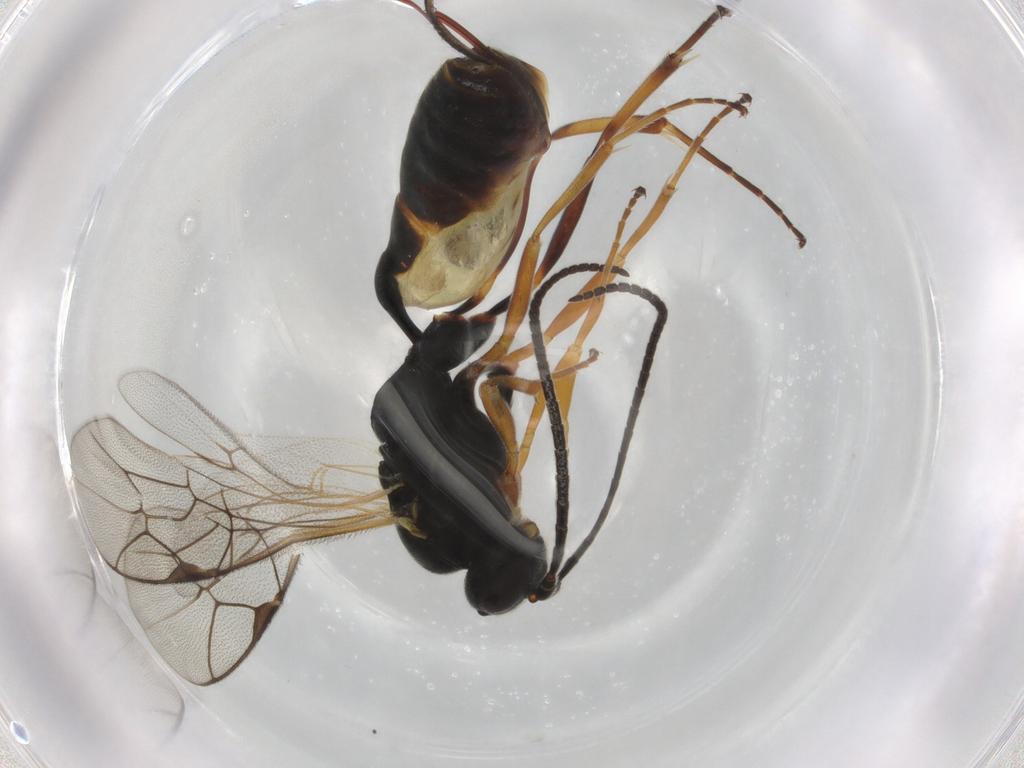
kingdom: Animalia
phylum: Arthropoda
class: Insecta
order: Hymenoptera
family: Ichneumonidae
